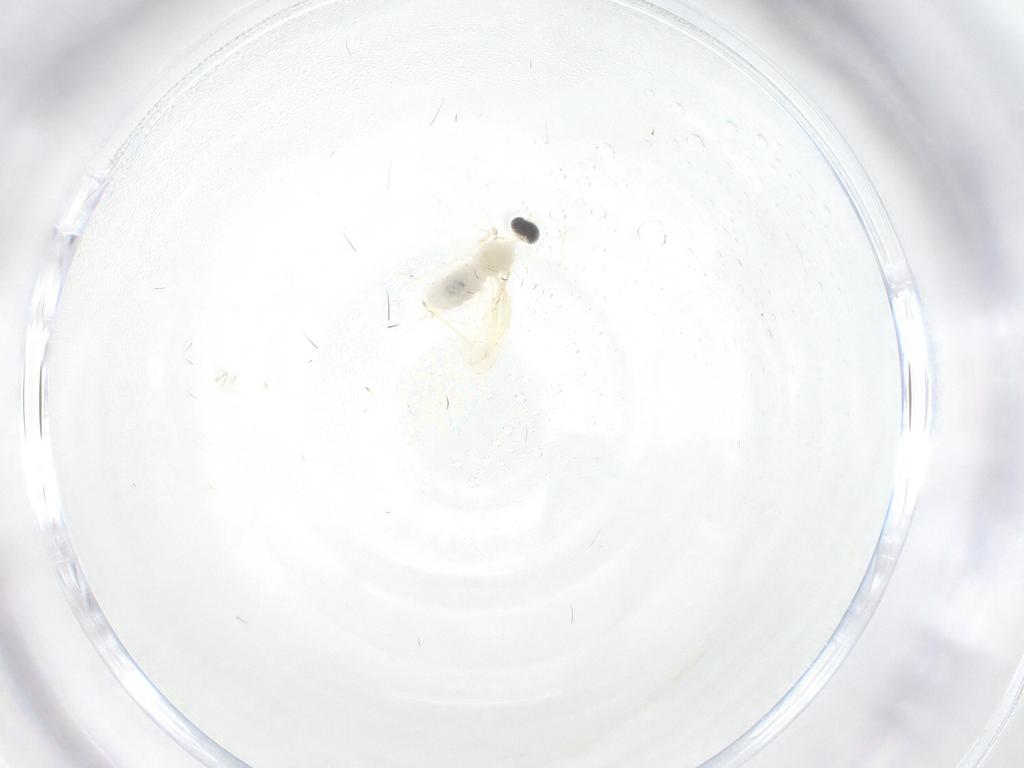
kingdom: Animalia
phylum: Arthropoda
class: Insecta
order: Diptera
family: Cecidomyiidae
